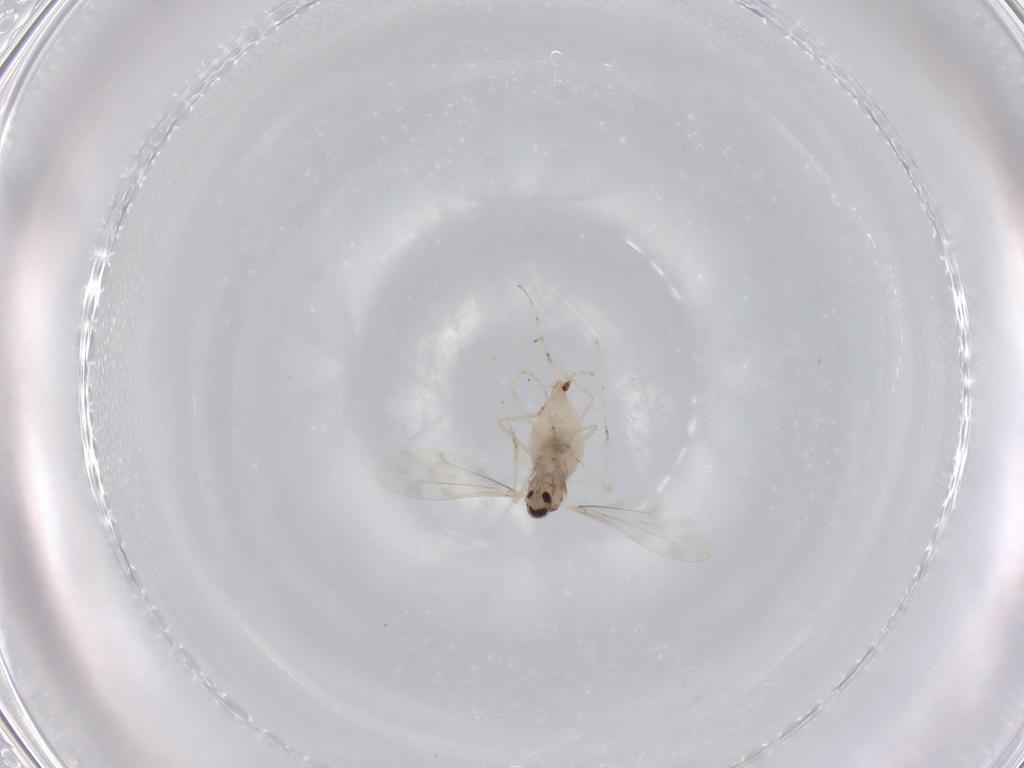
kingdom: Animalia
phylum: Arthropoda
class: Insecta
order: Diptera
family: Cecidomyiidae
